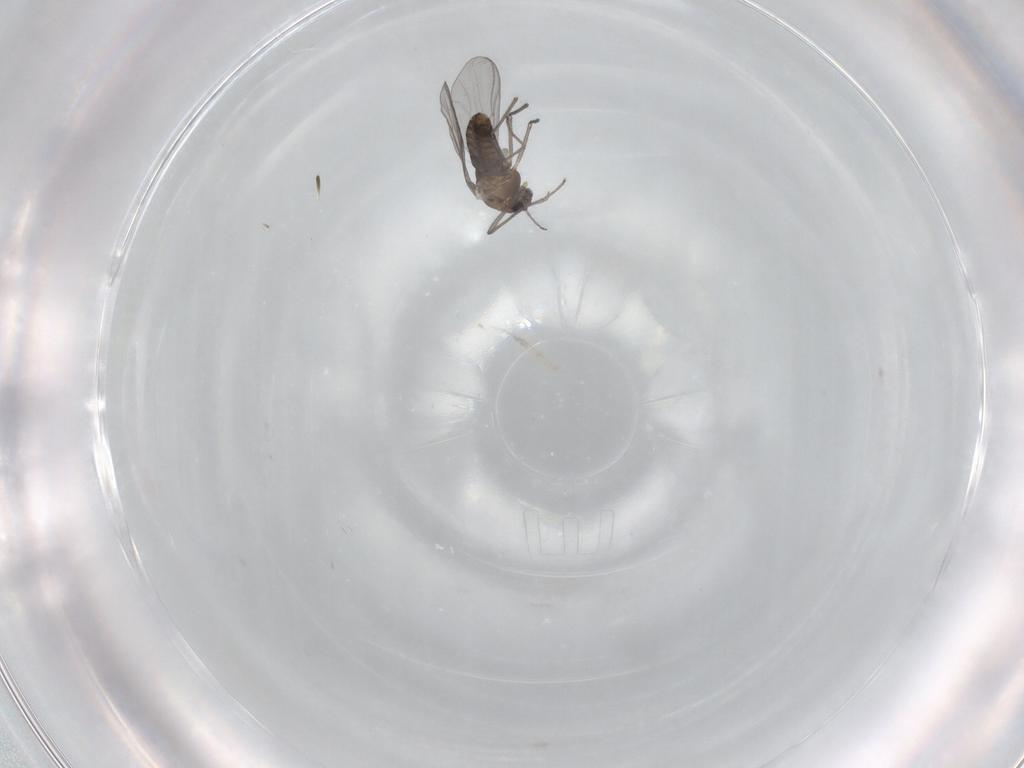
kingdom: Animalia
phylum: Arthropoda
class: Insecta
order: Diptera
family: Chironomidae
